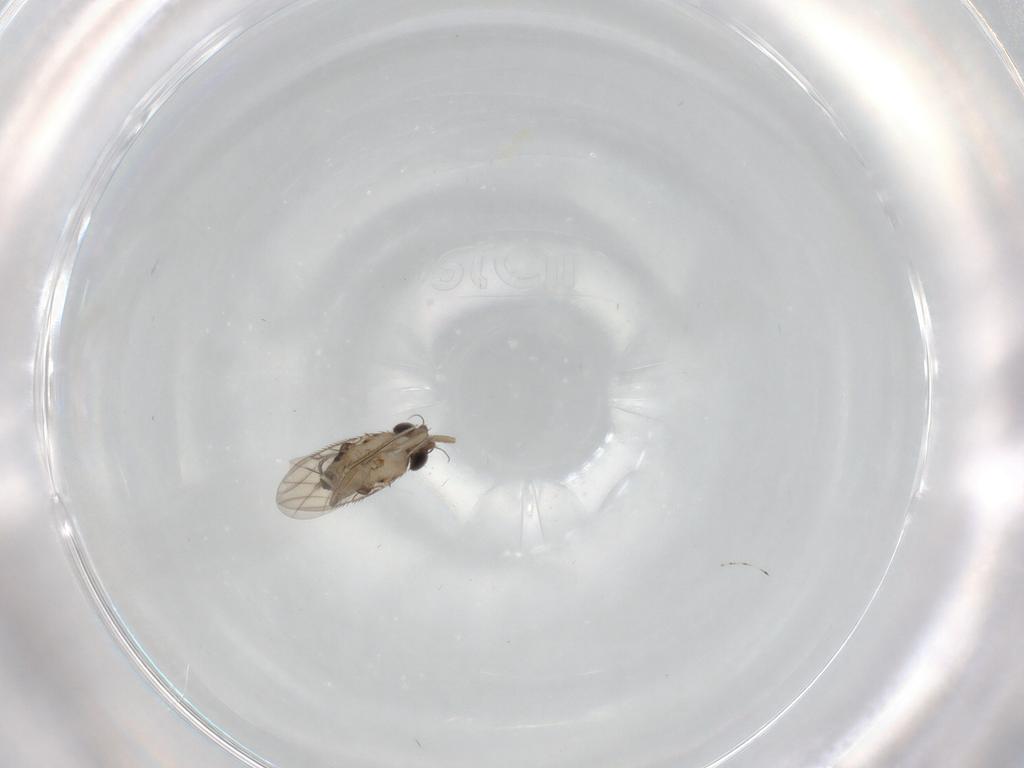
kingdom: Animalia
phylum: Arthropoda
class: Insecta
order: Diptera
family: Phoridae
